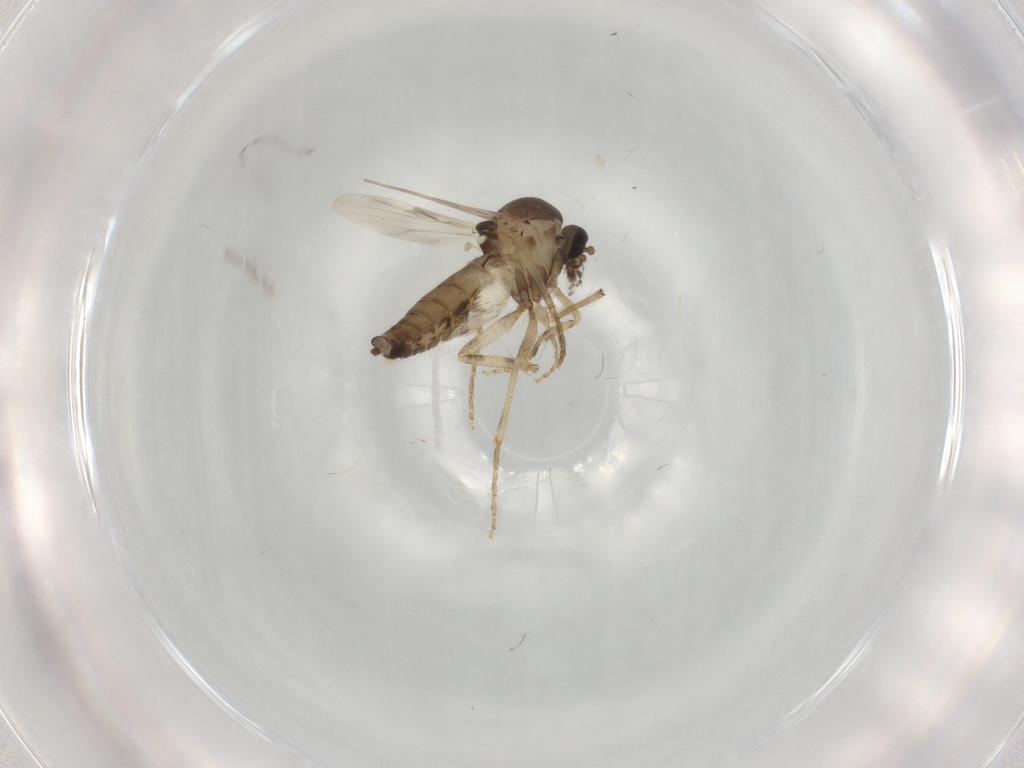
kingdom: Animalia
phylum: Arthropoda
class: Insecta
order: Diptera
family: Ceratopogonidae
